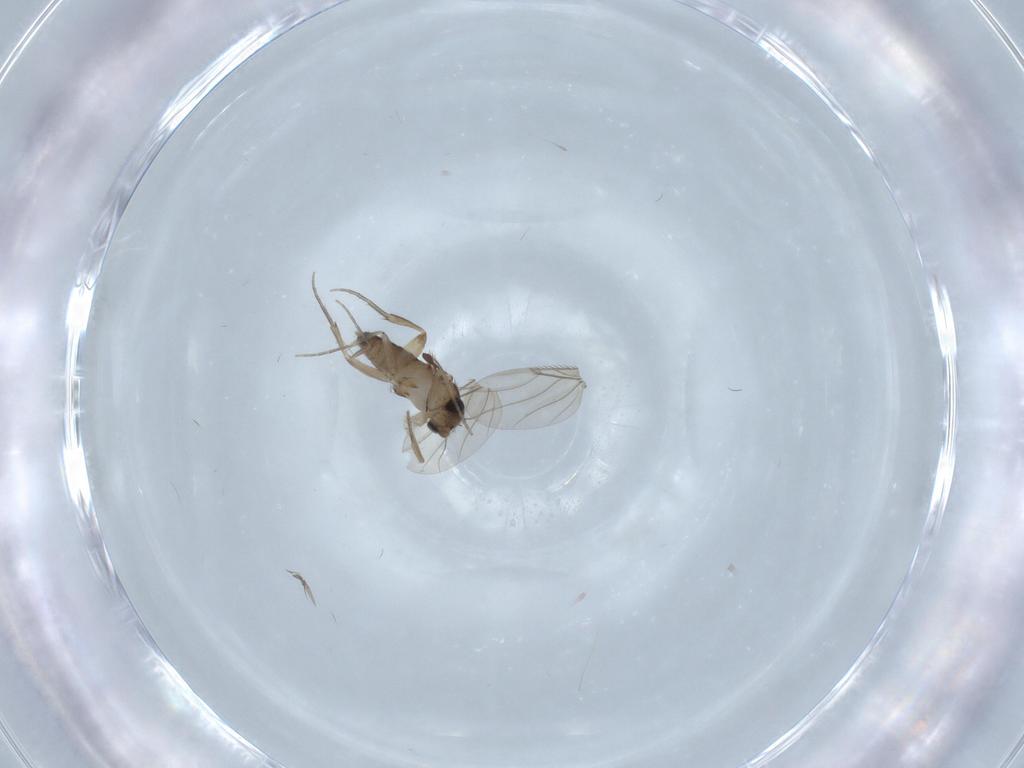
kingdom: Animalia
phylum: Arthropoda
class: Insecta
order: Diptera
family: Phoridae
